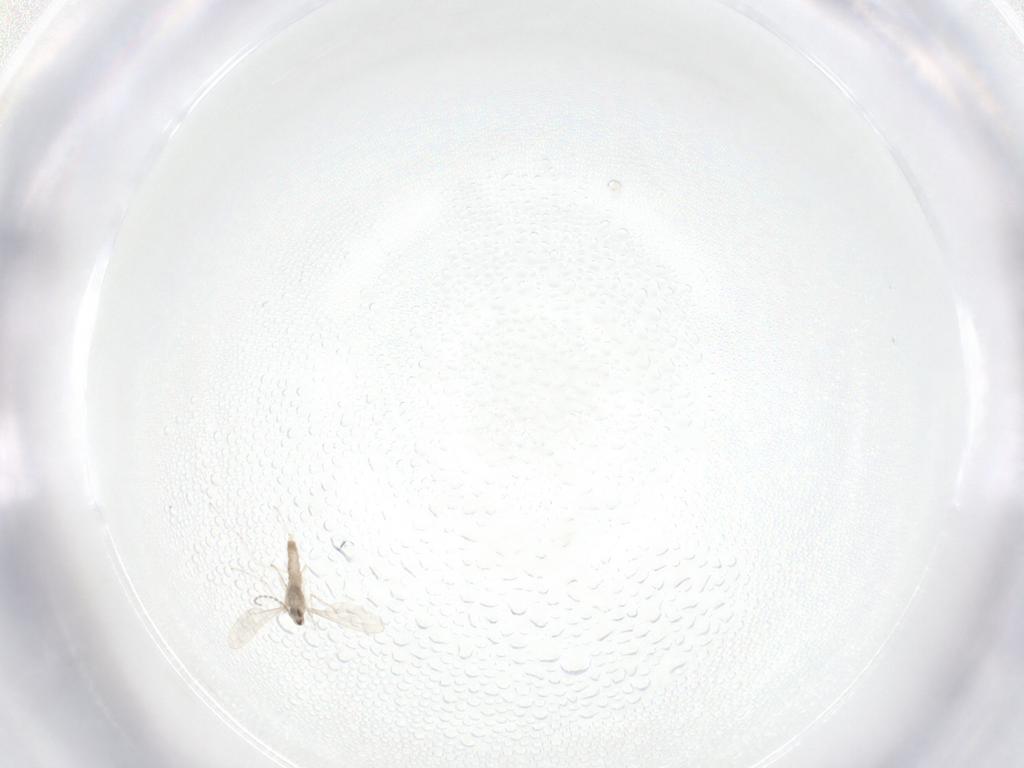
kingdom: Animalia
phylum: Arthropoda
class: Insecta
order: Diptera
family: Cecidomyiidae
